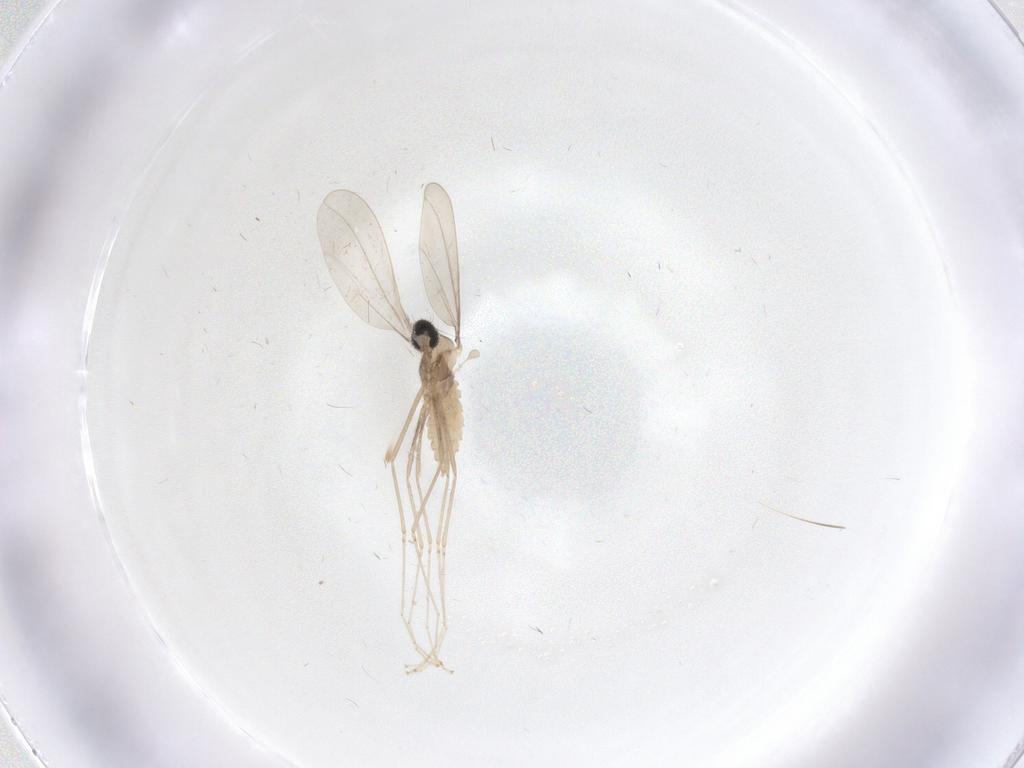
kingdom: Animalia
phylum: Arthropoda
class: Insecta
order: Diptera
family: Cecidomyiidae
